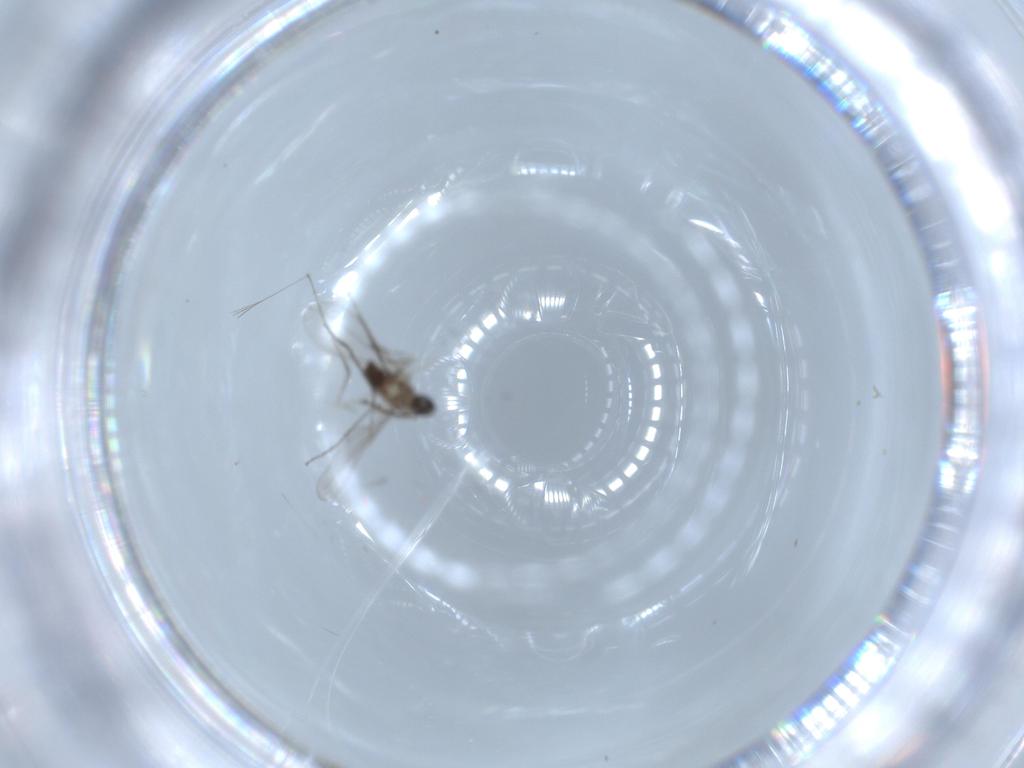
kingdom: Animalia
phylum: Arthropoda
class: Insecta
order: Diptera
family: Cecidomyiidae
